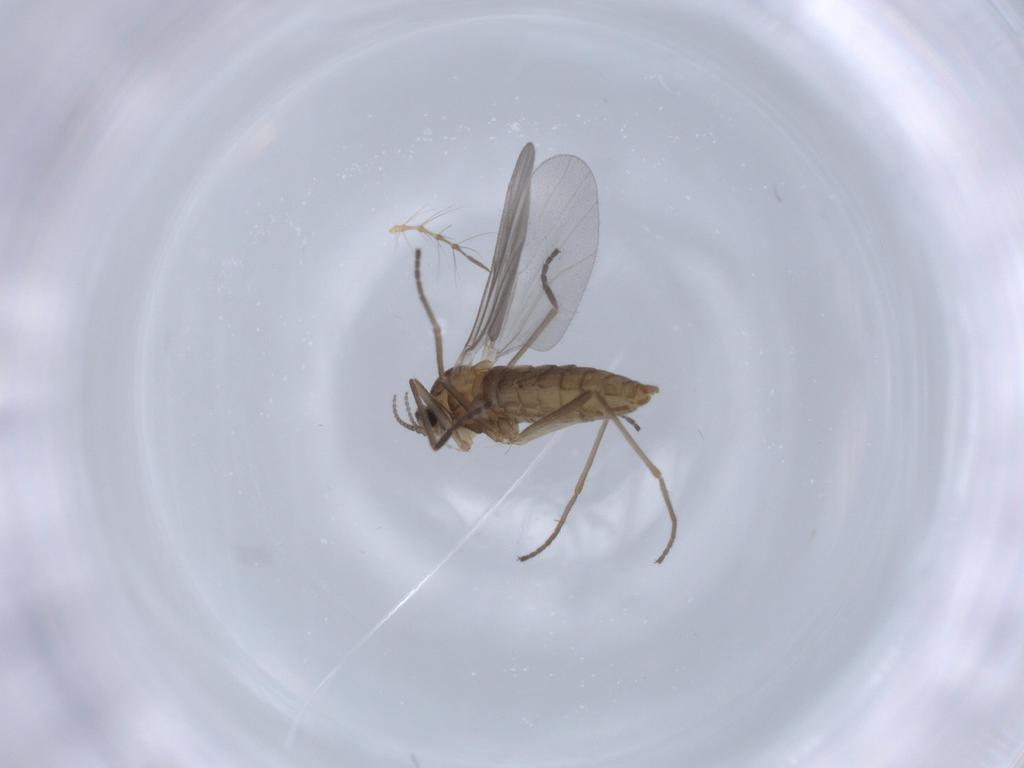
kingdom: Animalia
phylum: Arthropoda
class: Insecta
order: Diptera
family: Cecidomyiidae
